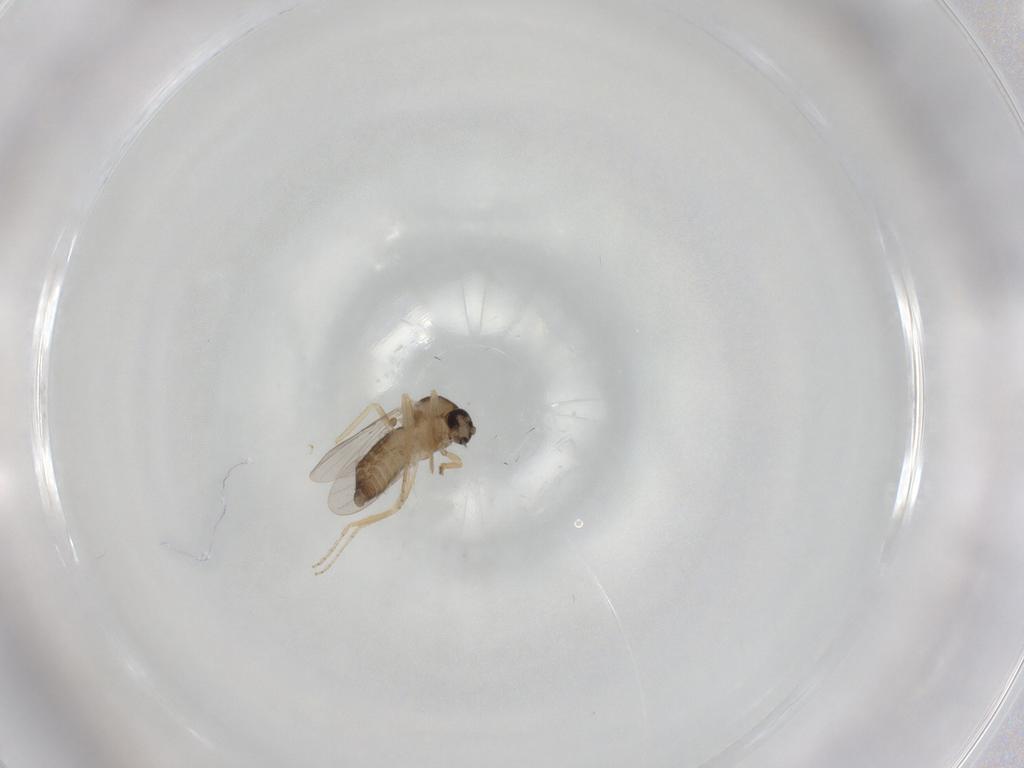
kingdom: Animalia
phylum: Arthropoda
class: Insecta
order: Diptera
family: Ceratopogonidae
